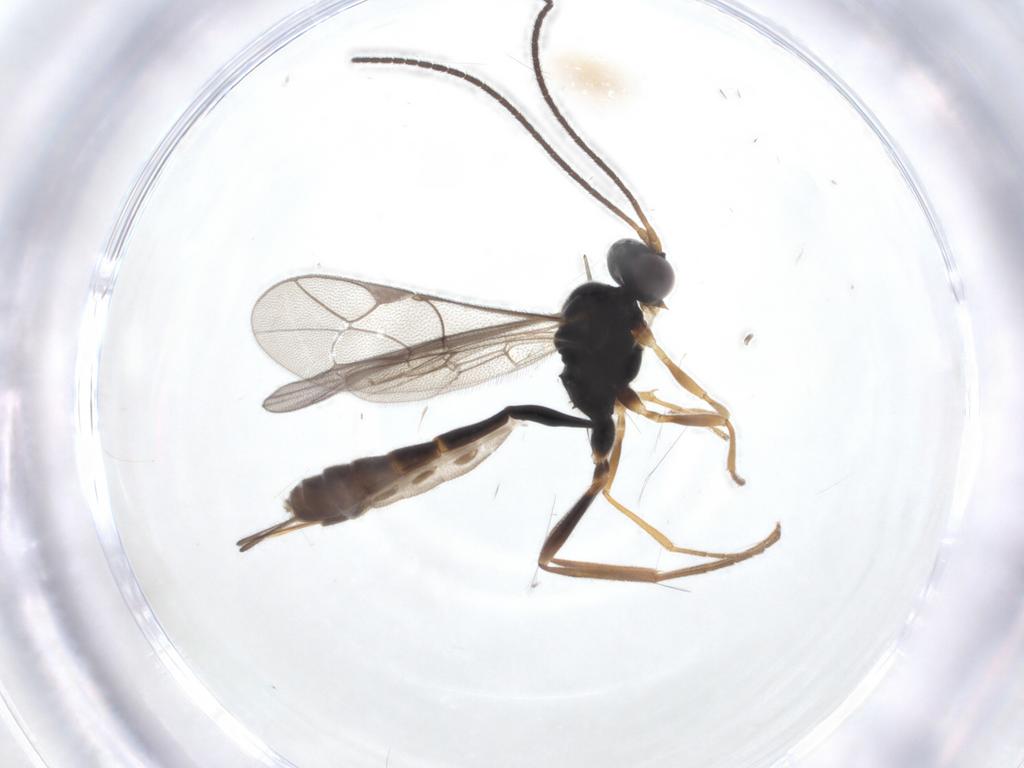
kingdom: Animalia
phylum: Arthropoda
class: Insecta
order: Hymenoptera
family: Ichneumonidae
